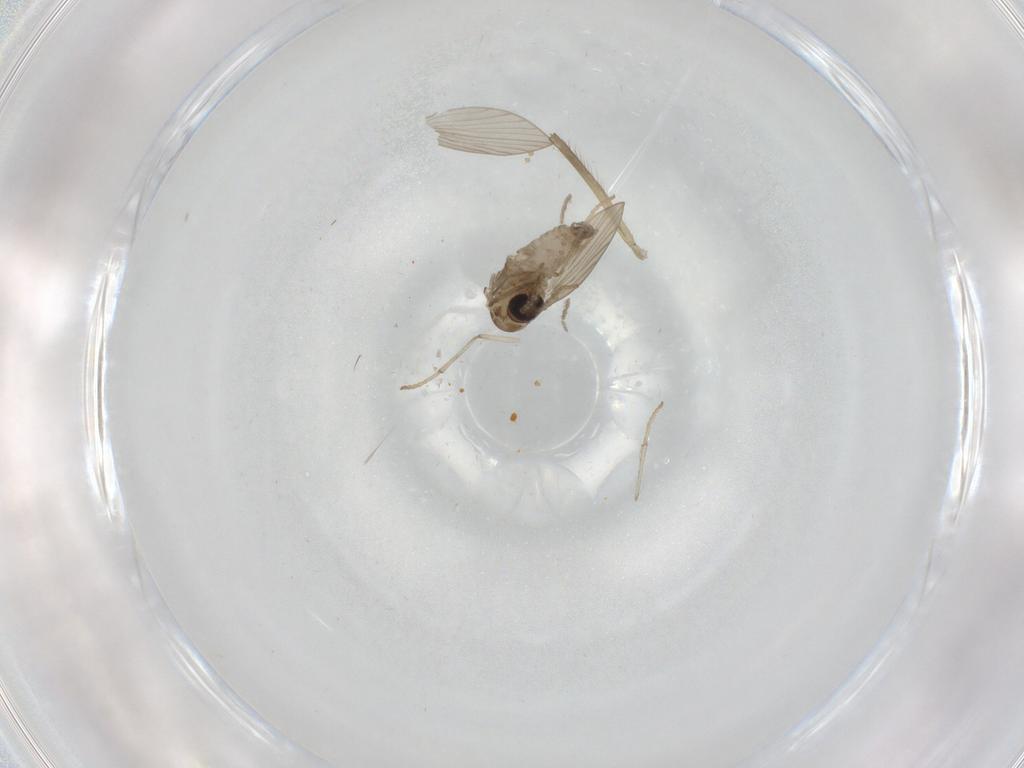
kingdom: Animalia
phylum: Arthropoda
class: Insecta
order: Diptera
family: Psychodidae
